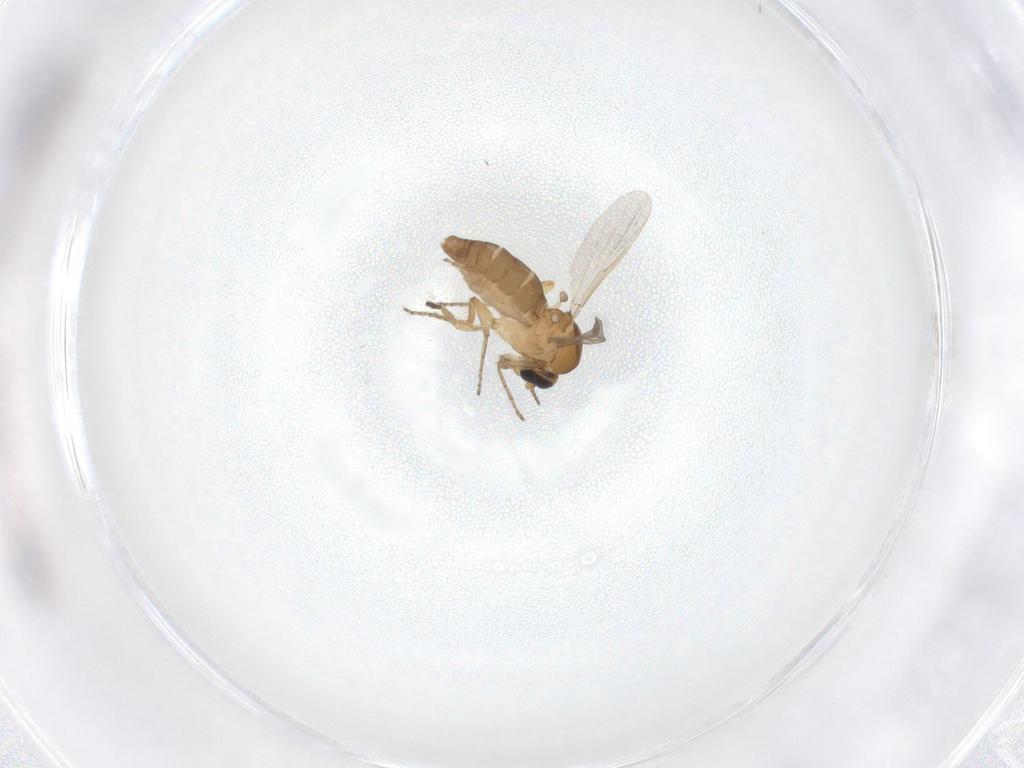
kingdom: Animalia
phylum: Arthropoda
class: Insecta
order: Diptera
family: Ceratopogonidae
